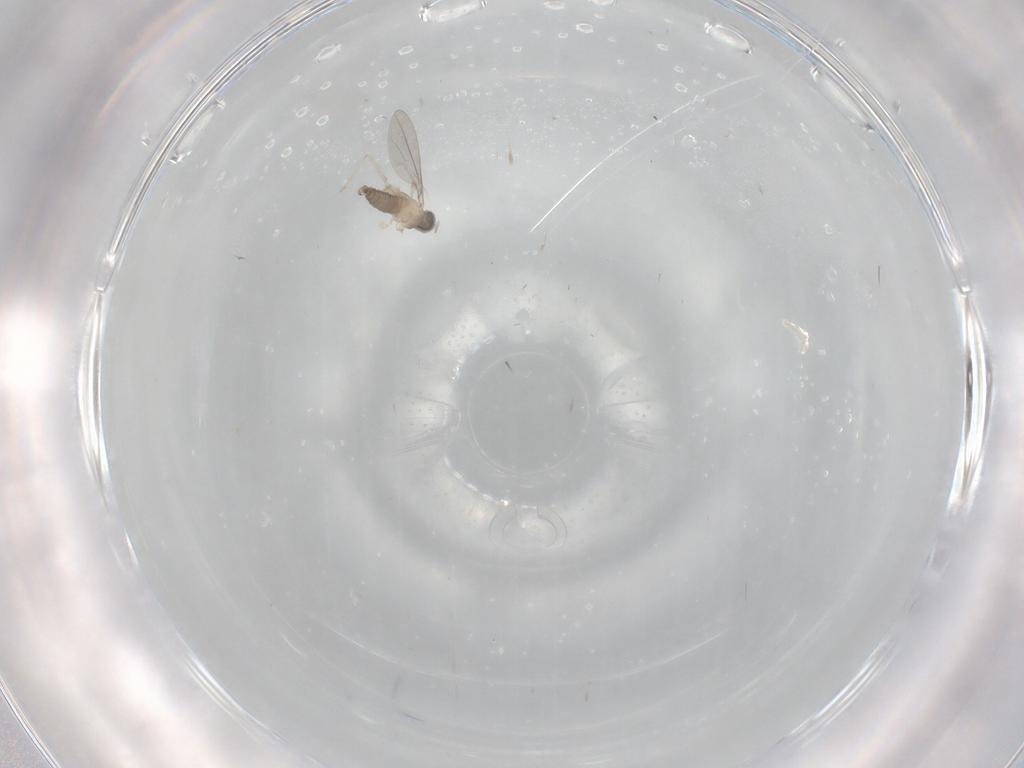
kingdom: Animalia
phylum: Arthropoda
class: Insecta
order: Diptera
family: Cecidomyiidae
